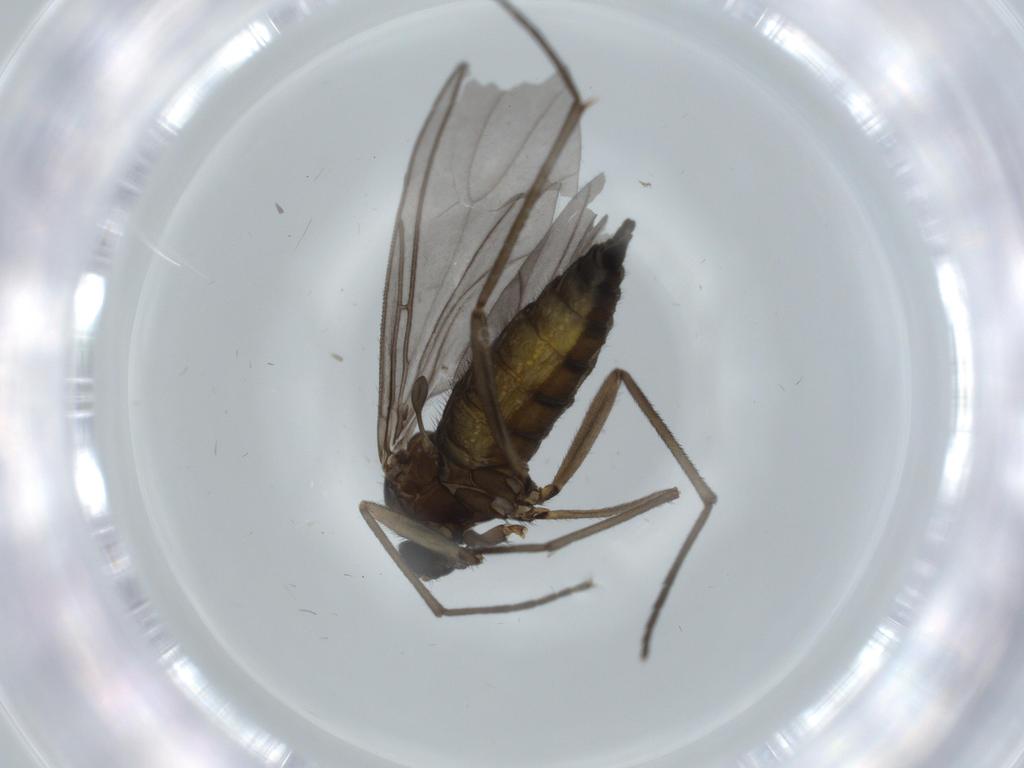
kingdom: Animalia
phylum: Arthropoda
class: Insecta
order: Diptera
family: Sciaridae
